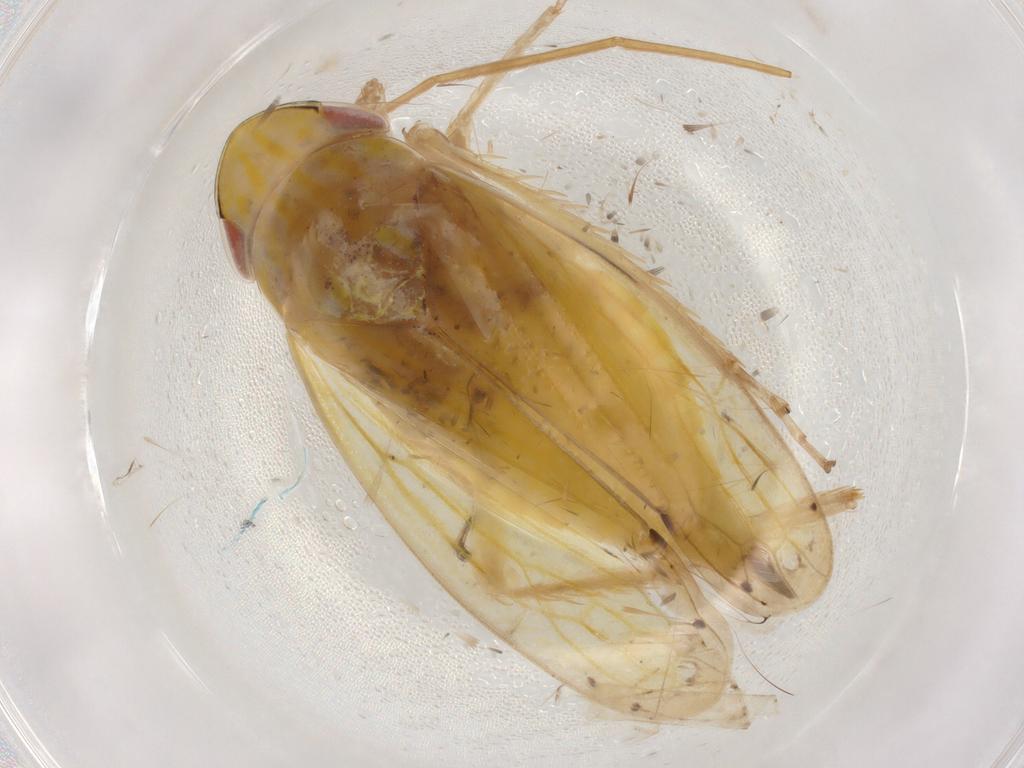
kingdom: Animalia
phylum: Arthropoda
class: Insecta
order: Hemiptera
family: Cicadellidae
